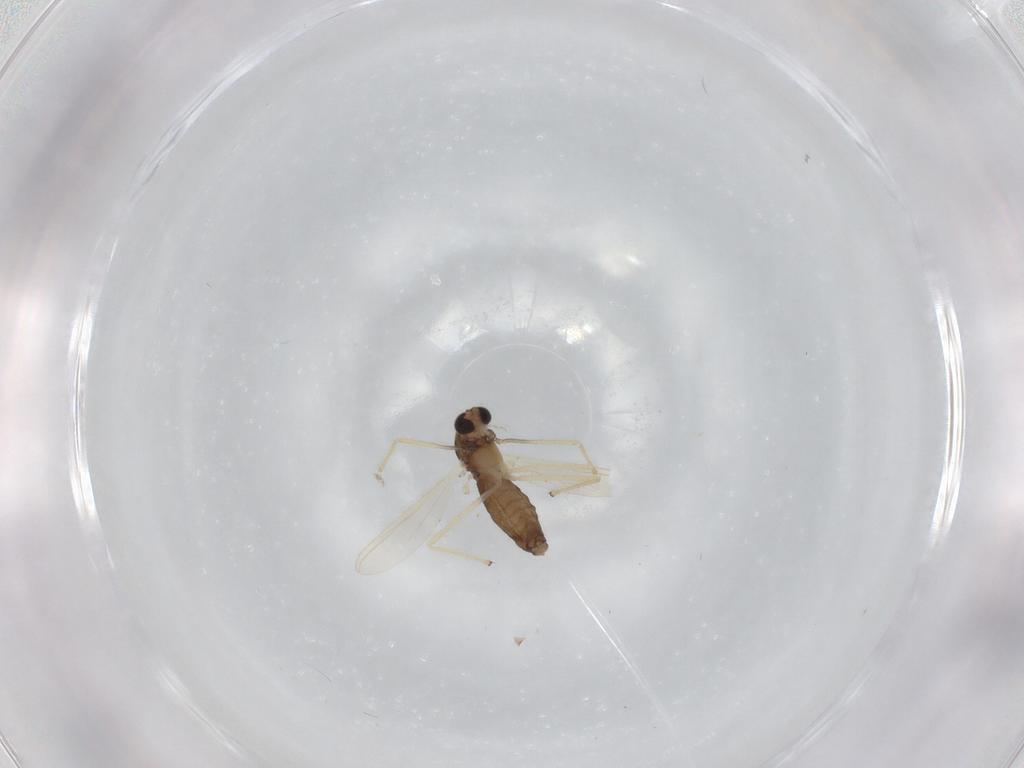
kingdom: Animalia
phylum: Arthropoda
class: Insecta
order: Diptera
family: Chironomidae
